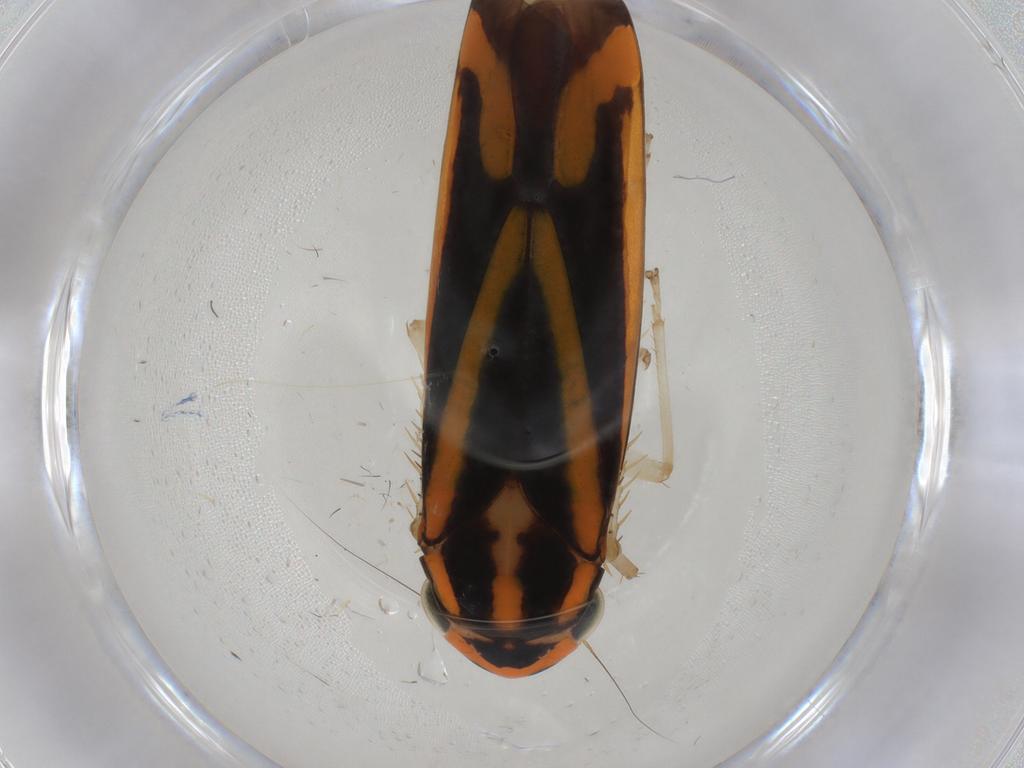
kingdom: Animalia
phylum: Arthropoda
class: Insecta
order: Hemiptera
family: Cicadellidae
